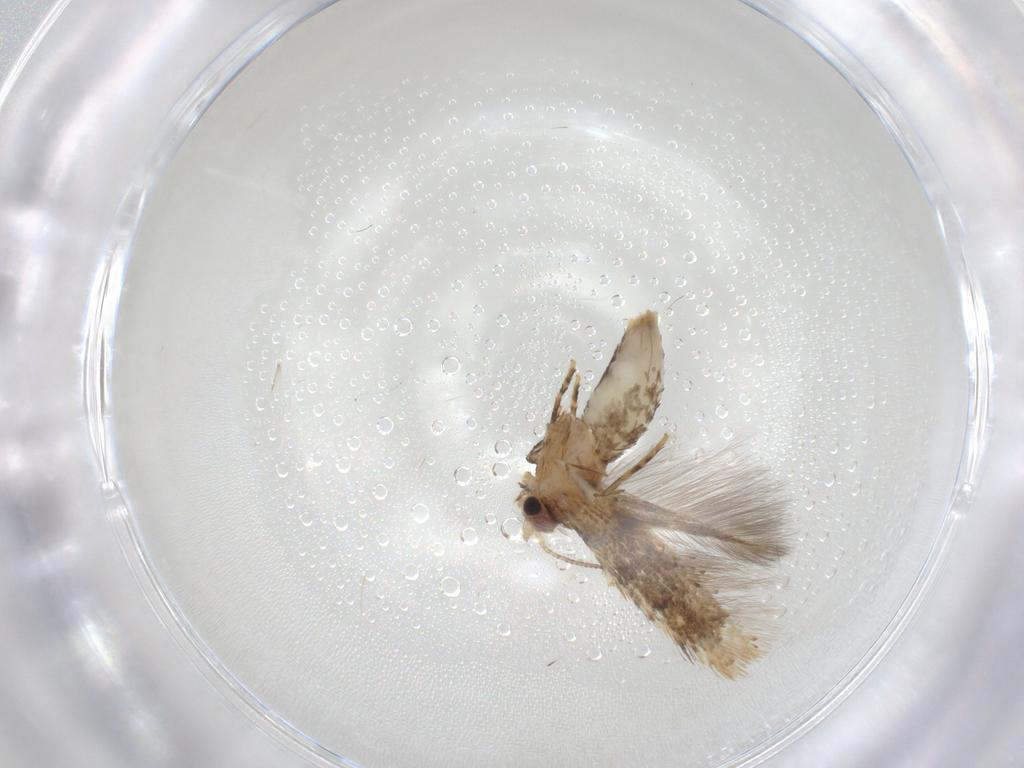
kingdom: Animalia
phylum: Arthropoda
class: Insecta
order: Lepidoptera
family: Tineidae
